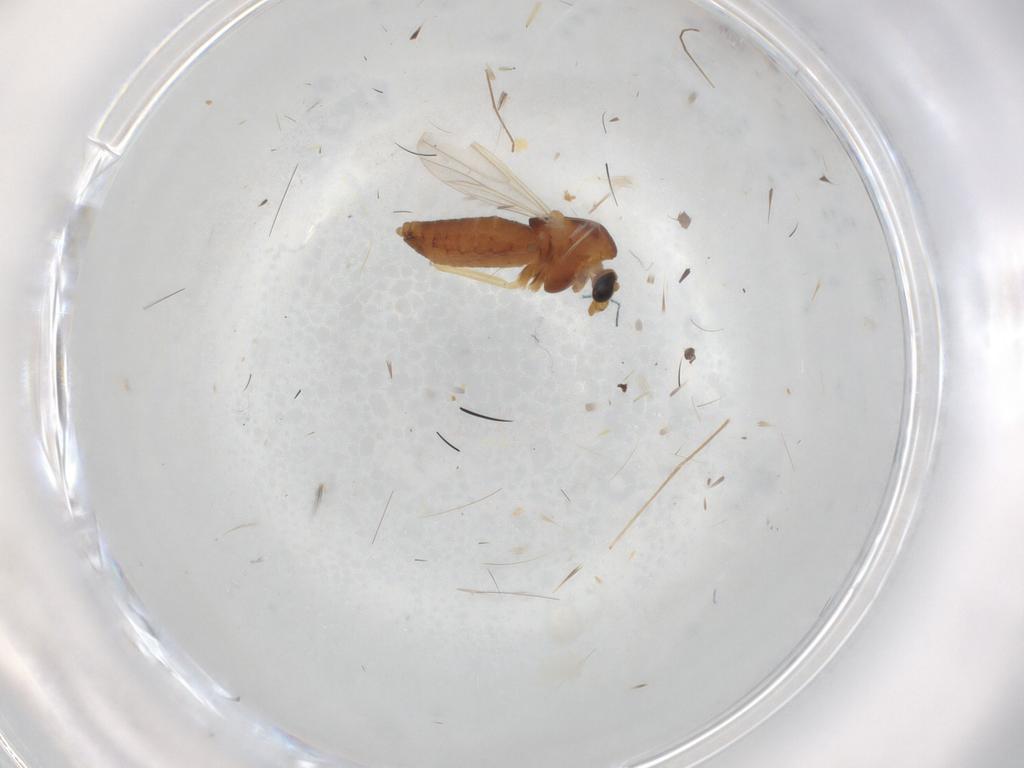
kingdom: Animalia
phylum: Arthropoda
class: Insecta
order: Diptera
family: Chironomidae
